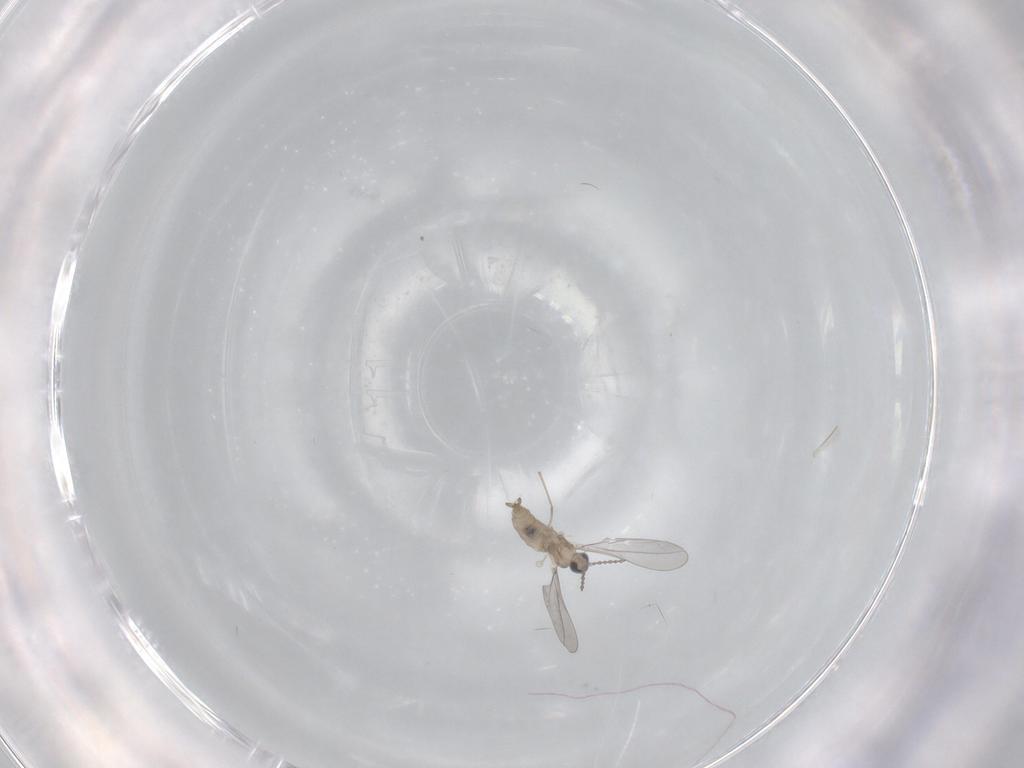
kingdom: Animalia
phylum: Arthropoda
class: Insecta
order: Diptera
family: Cecidomyiidae
